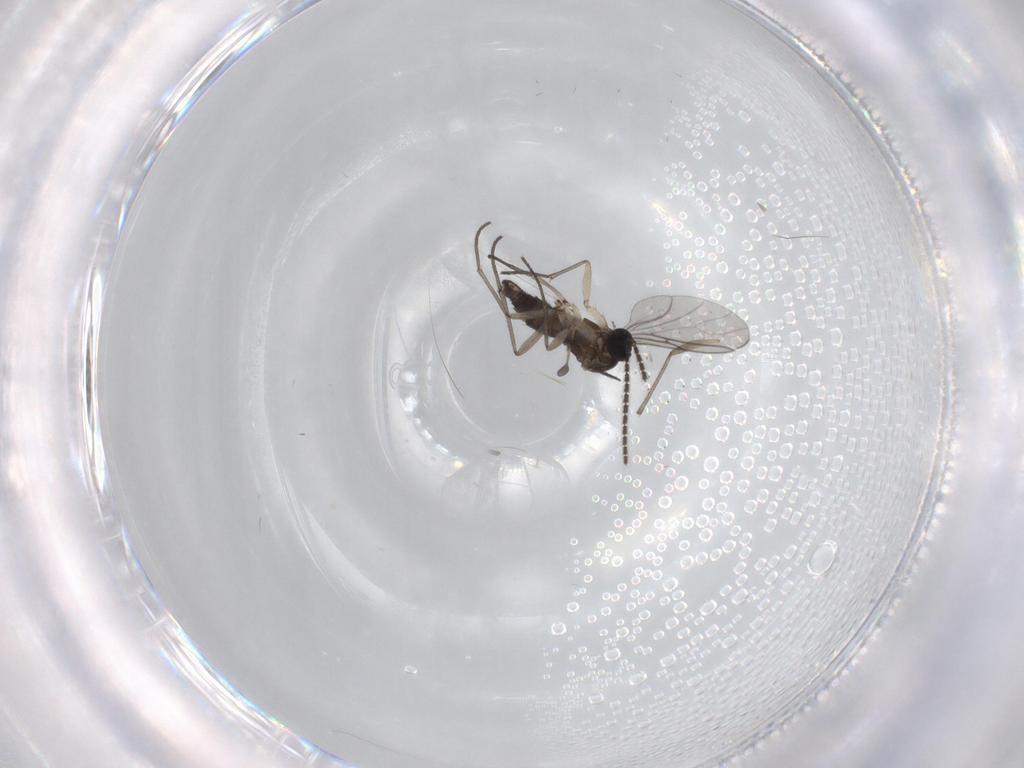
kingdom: Animalia
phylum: Arthropoda
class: Insecta
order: Diptera
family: Sciaridae
